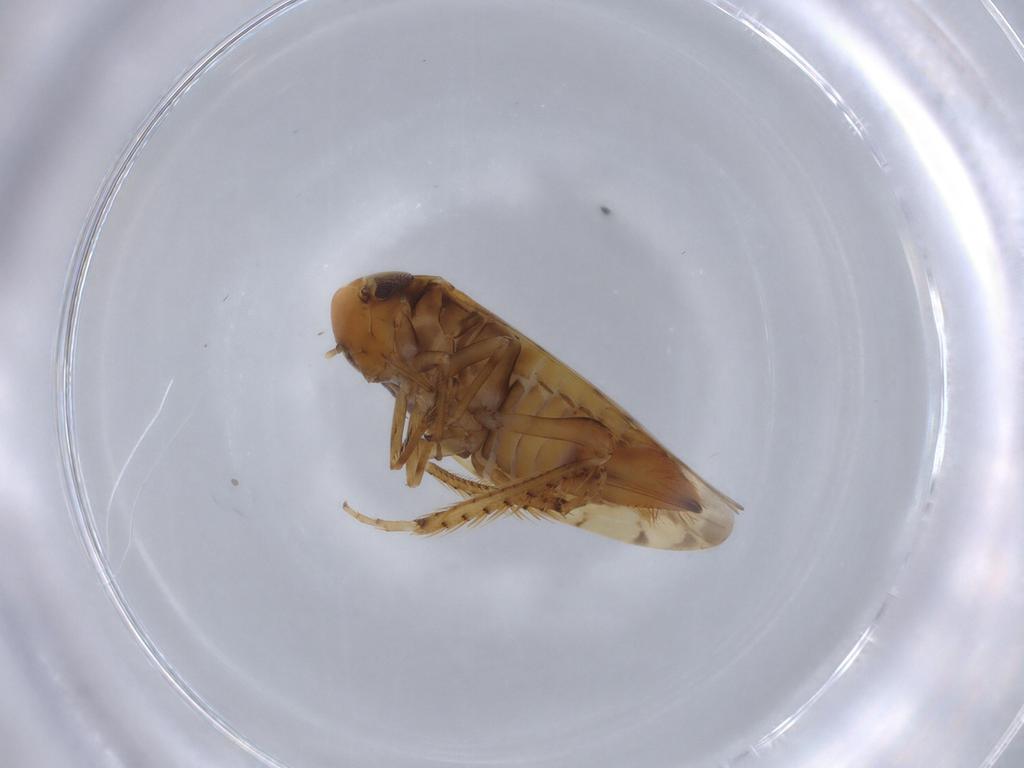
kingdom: Animalia
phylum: Arthropoda
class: Insecta
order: Hemiptera
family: Cicadellidae
